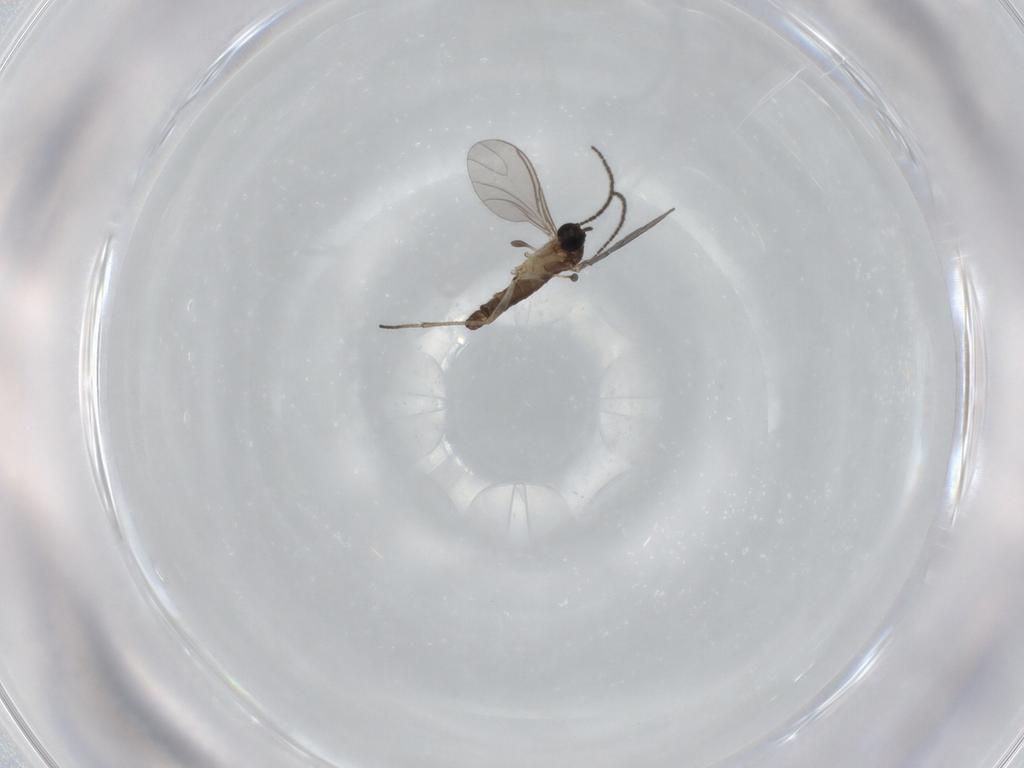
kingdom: Animalia
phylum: Arthropoda
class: Insecta
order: Diptera
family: Sciaridae
